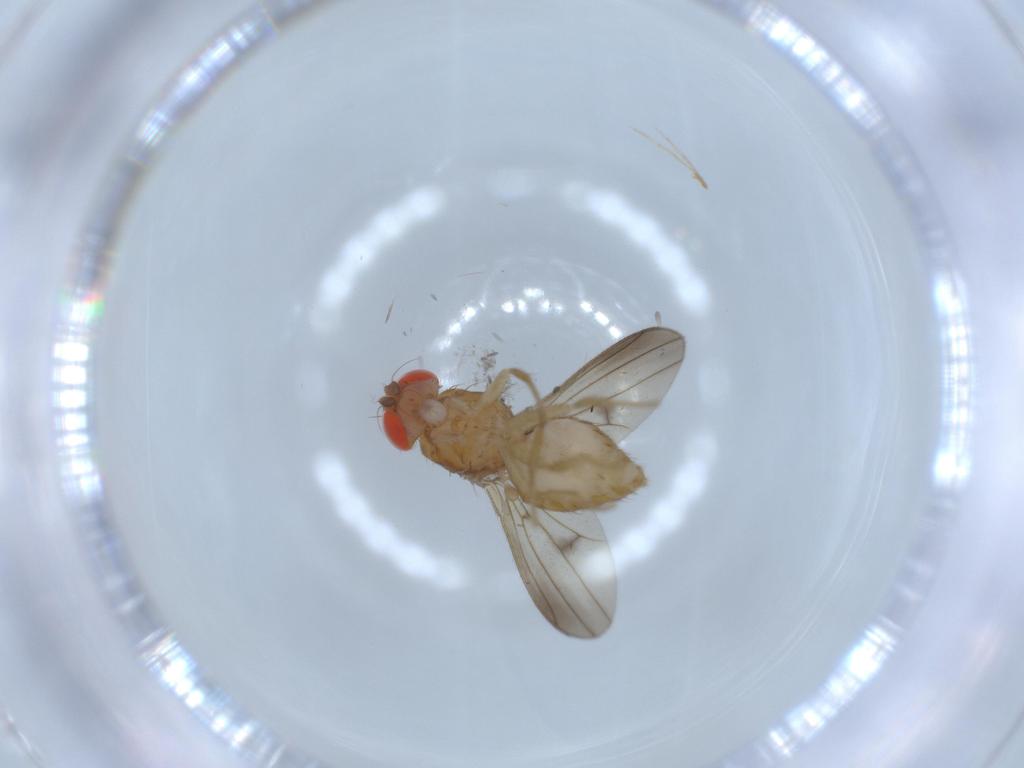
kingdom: Animalia
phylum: Arthropoda
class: Insecta
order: Diptera
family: Drosophilidae
